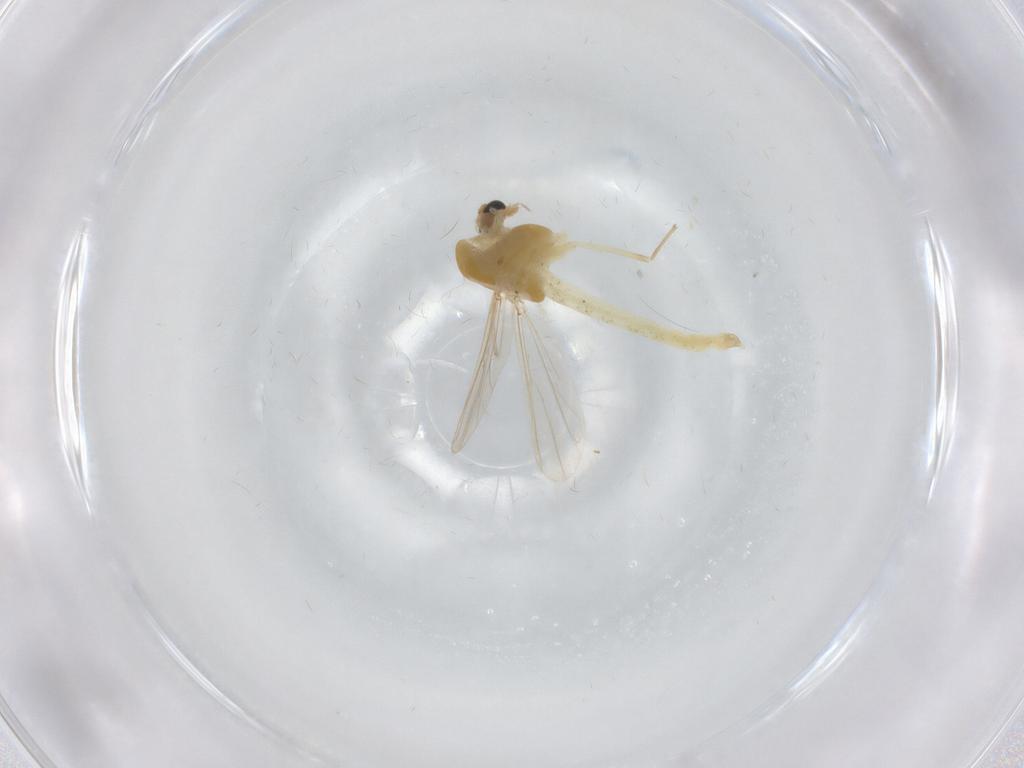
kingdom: Animalia
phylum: Arthropoda
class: Insecta
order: Diptera
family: Chironomidae
